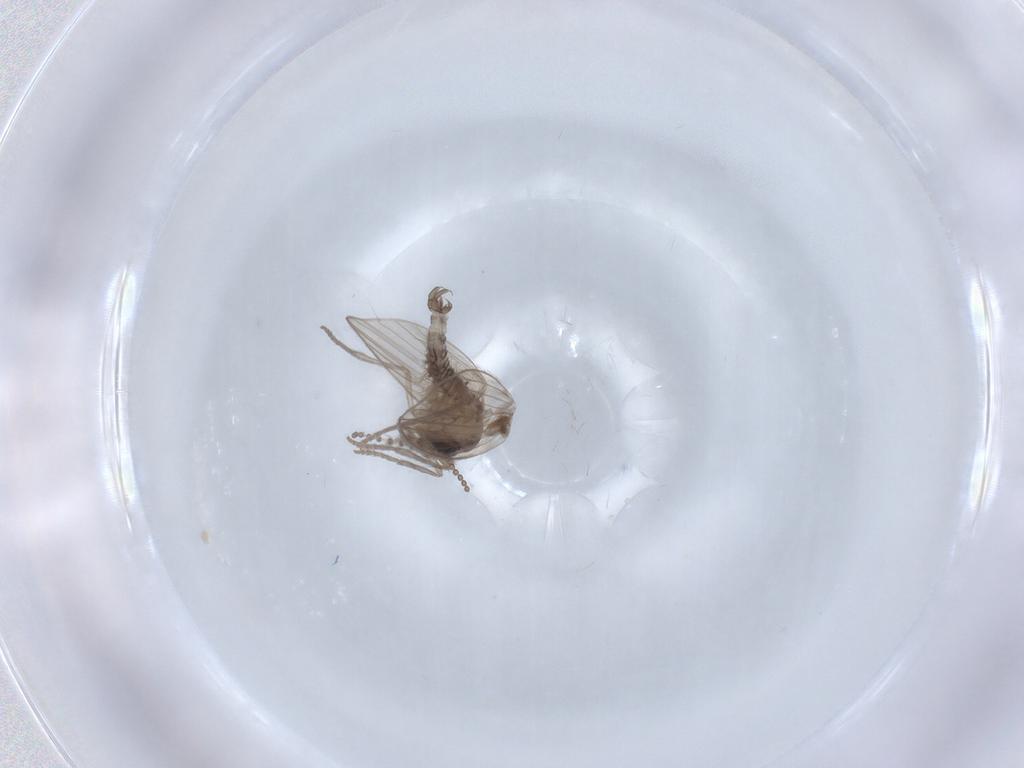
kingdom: Animalia
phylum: Arthropoda
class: Insecta
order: Diptera
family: Psychodidae
